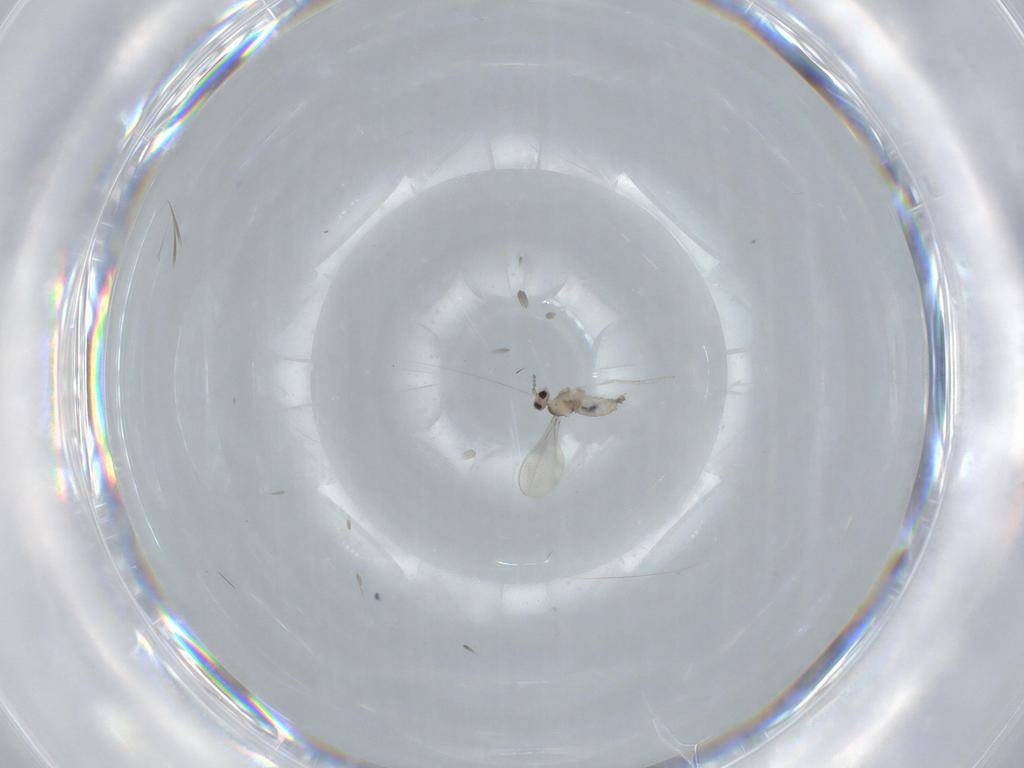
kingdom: Animalia
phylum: Arthropoda
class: Insecta
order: Diptera
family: Cecidomyiidae
